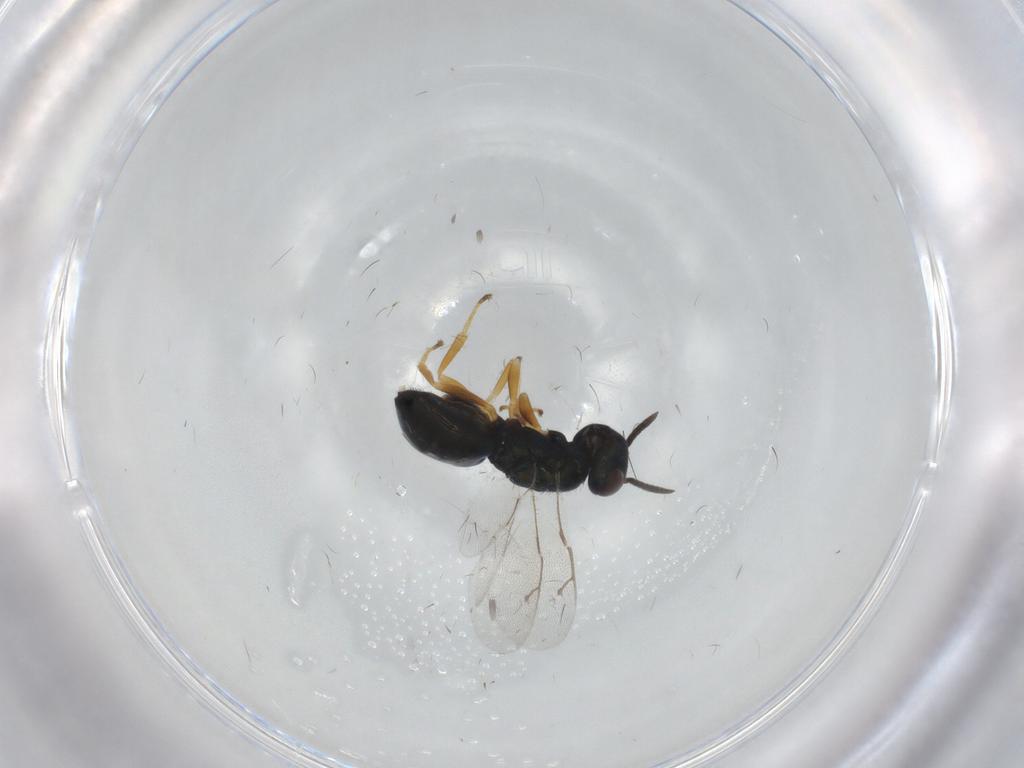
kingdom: Animalia
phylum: Arthropoda
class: Insecta
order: Hymenoptera
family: Pteromalidae
